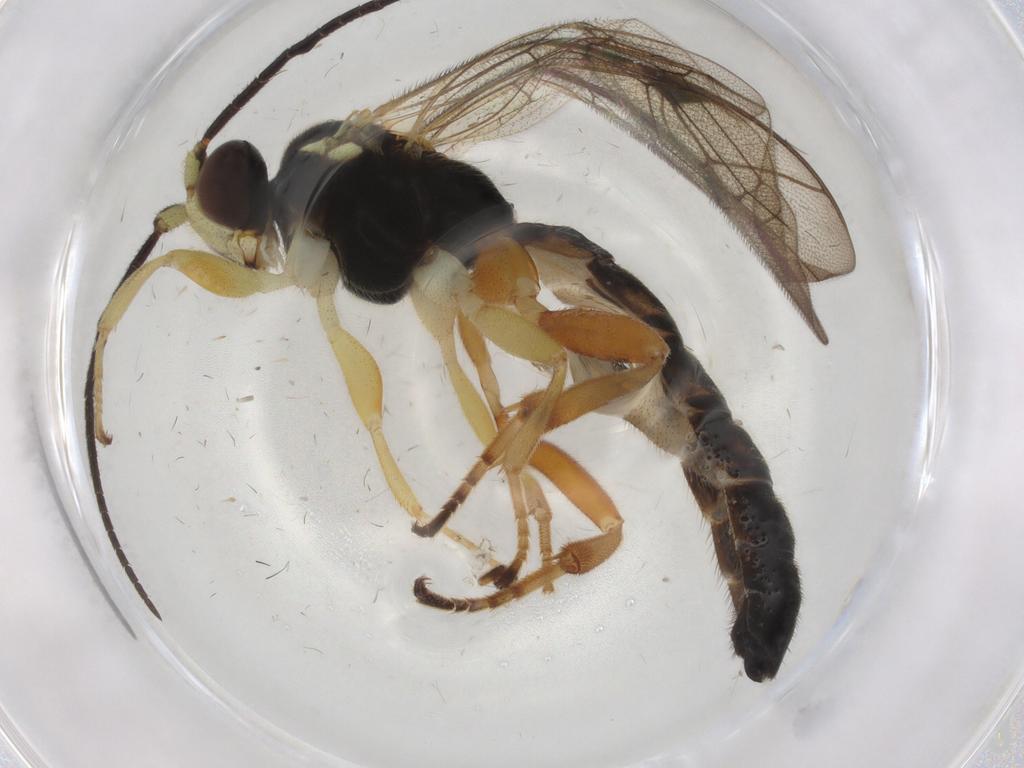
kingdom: Animalia
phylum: Arthropoda
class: Insecta
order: Hymenoptera
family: Ichneumonidae
